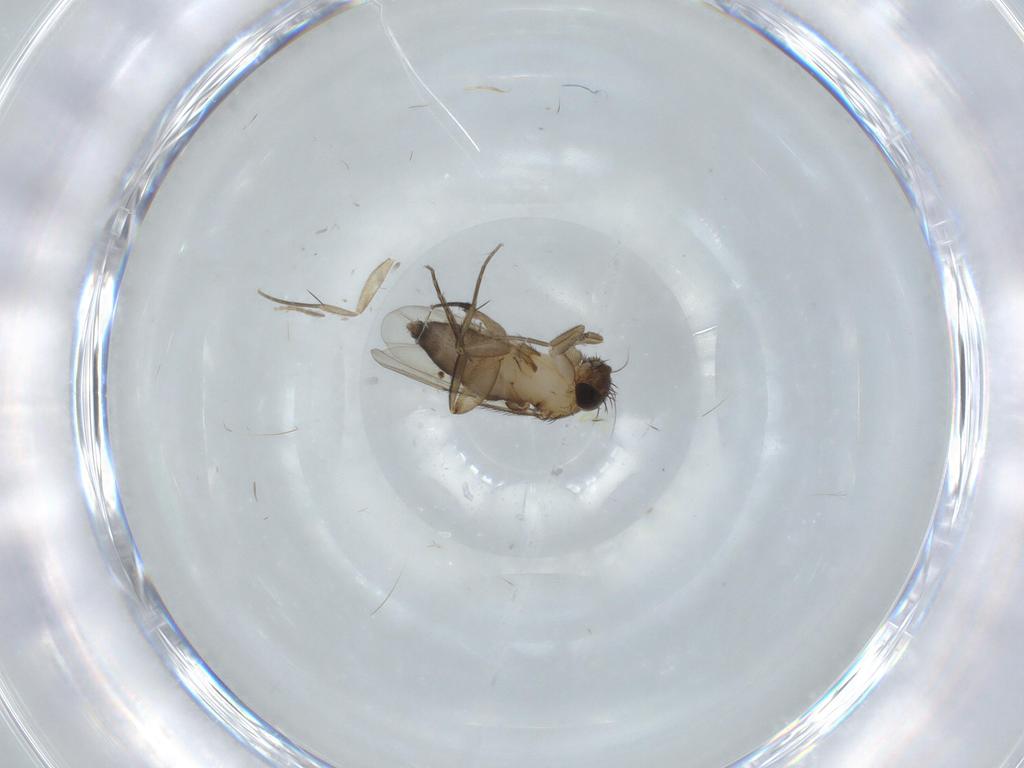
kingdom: Animalia
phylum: Arthropoda
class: Insecta
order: Diptera
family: Phoridae
